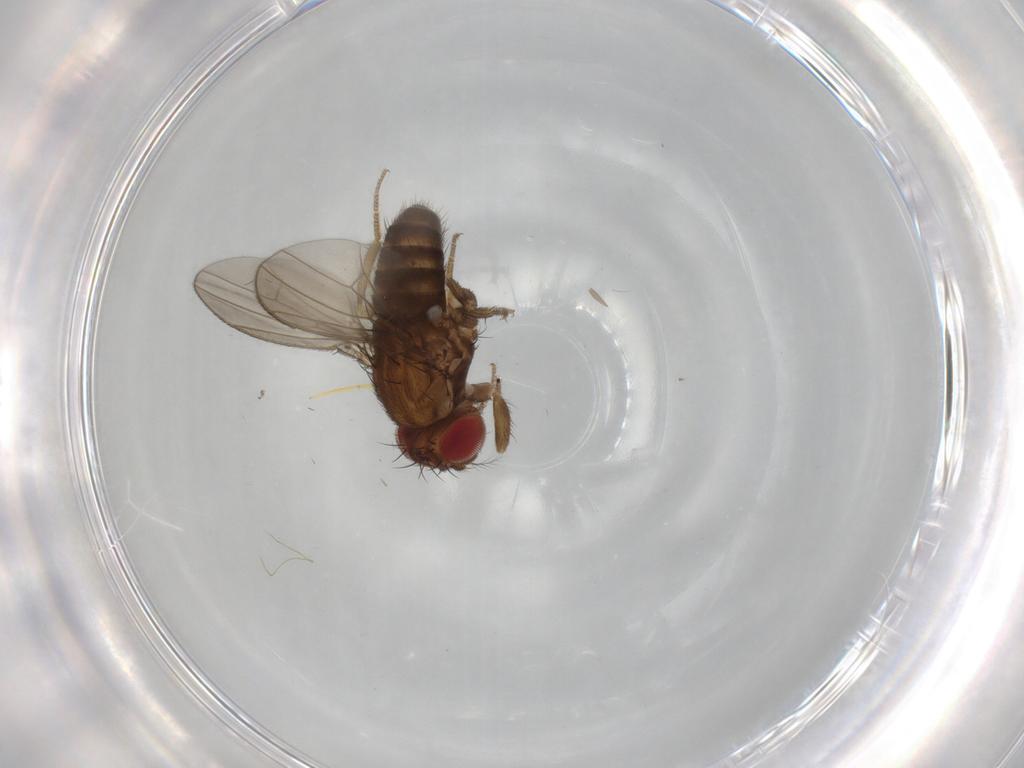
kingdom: Animalia
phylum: Arthropoda
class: Insecta
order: Diptera
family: Drosophilidae
